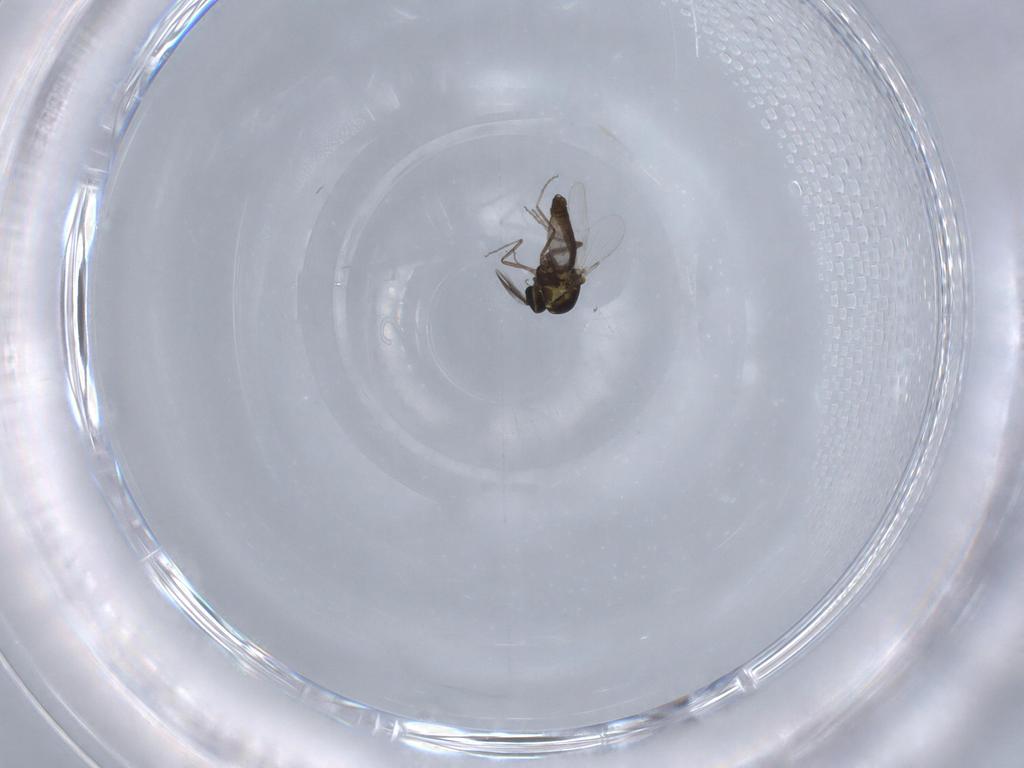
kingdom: Animalia
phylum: Arthropoda
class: Insecta
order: Diptera
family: Ceratopogonidae
